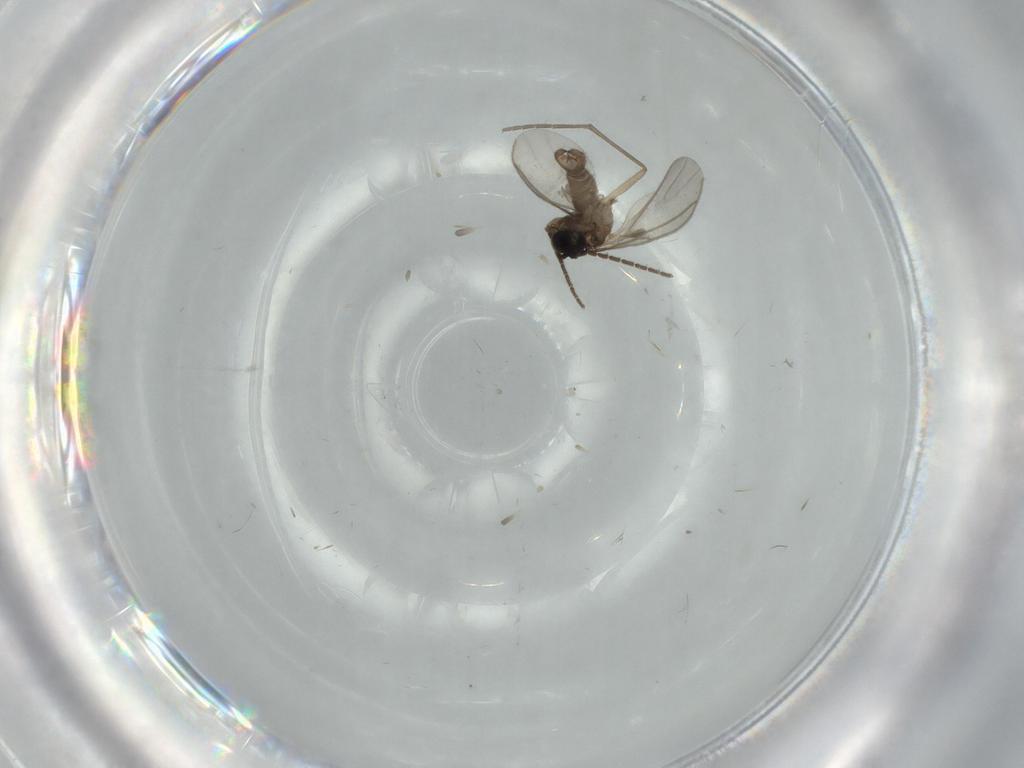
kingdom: Animalia
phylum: Arthropoda
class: Insecta
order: Diptera
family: Sciaridae
